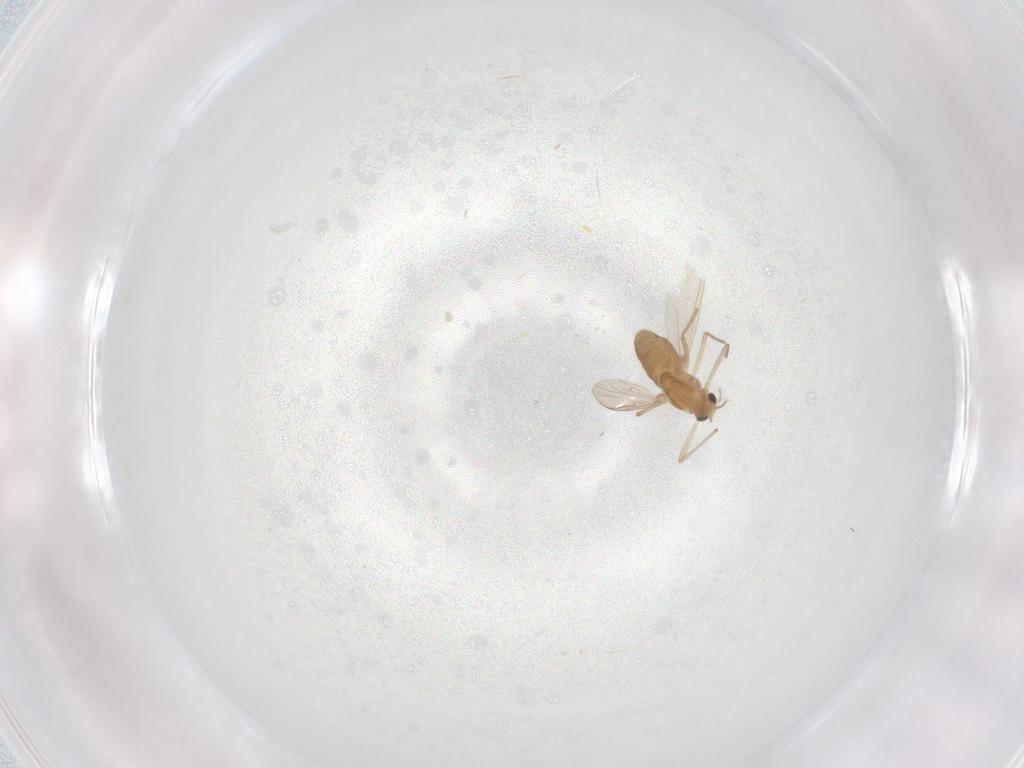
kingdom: Animalia
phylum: Arthropoda
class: Insecta
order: Diptera
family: Chironomidae
